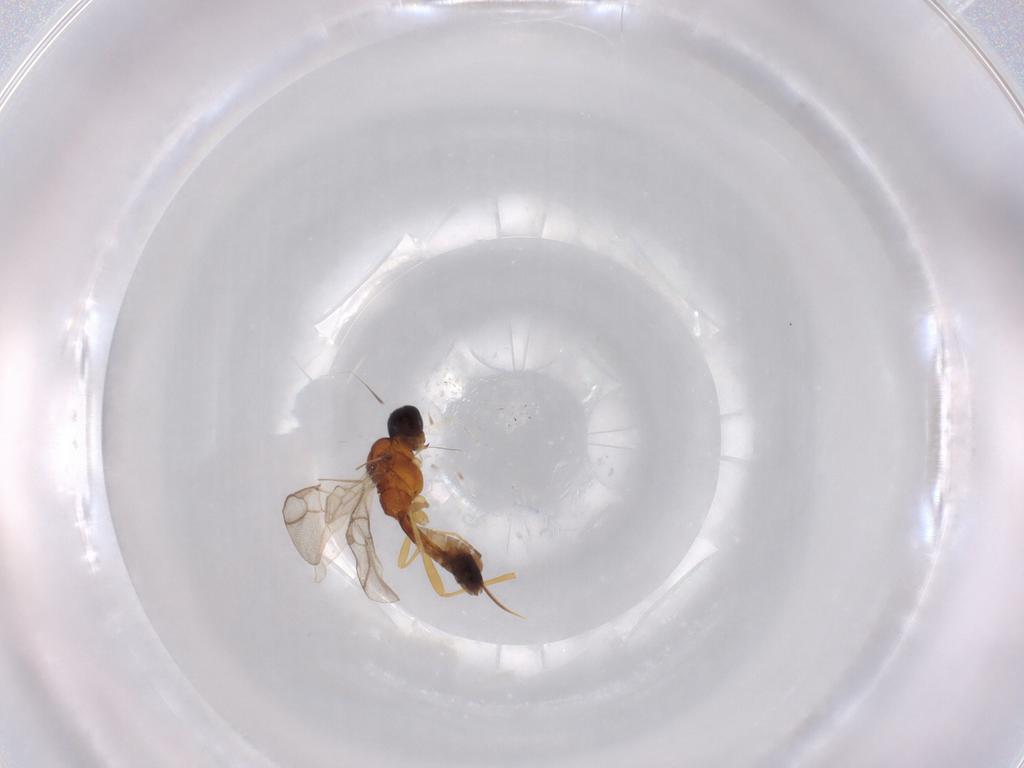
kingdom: Animalia
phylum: Arthropoda
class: Insecta
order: Hymenoptera
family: Braconidae
